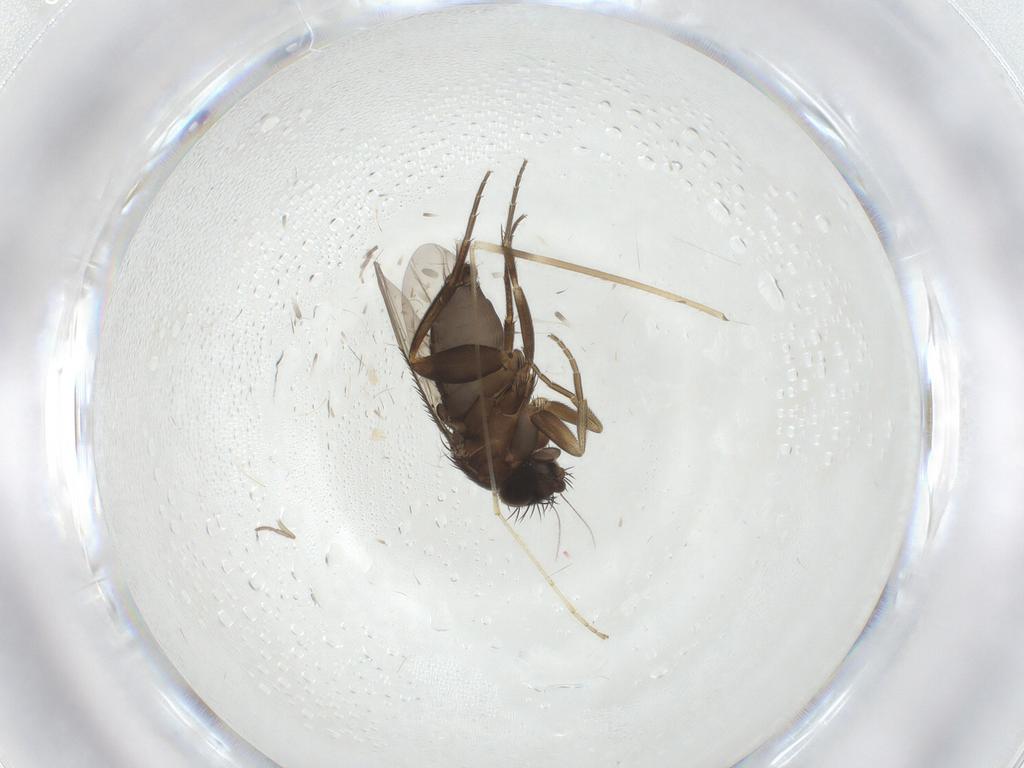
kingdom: Animalia
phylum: Arthropoda
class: Insecta
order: Diptera
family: Phoridae
